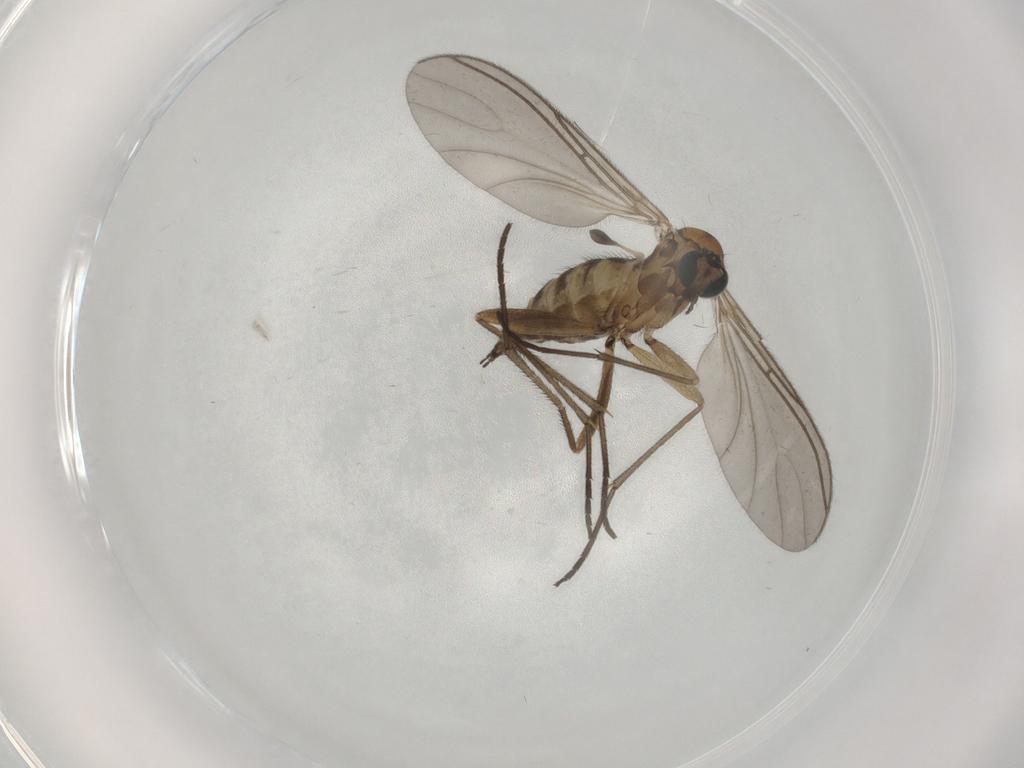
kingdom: Animalia
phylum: Arthropoda
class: Insecta
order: Diptera
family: Sciaridae
